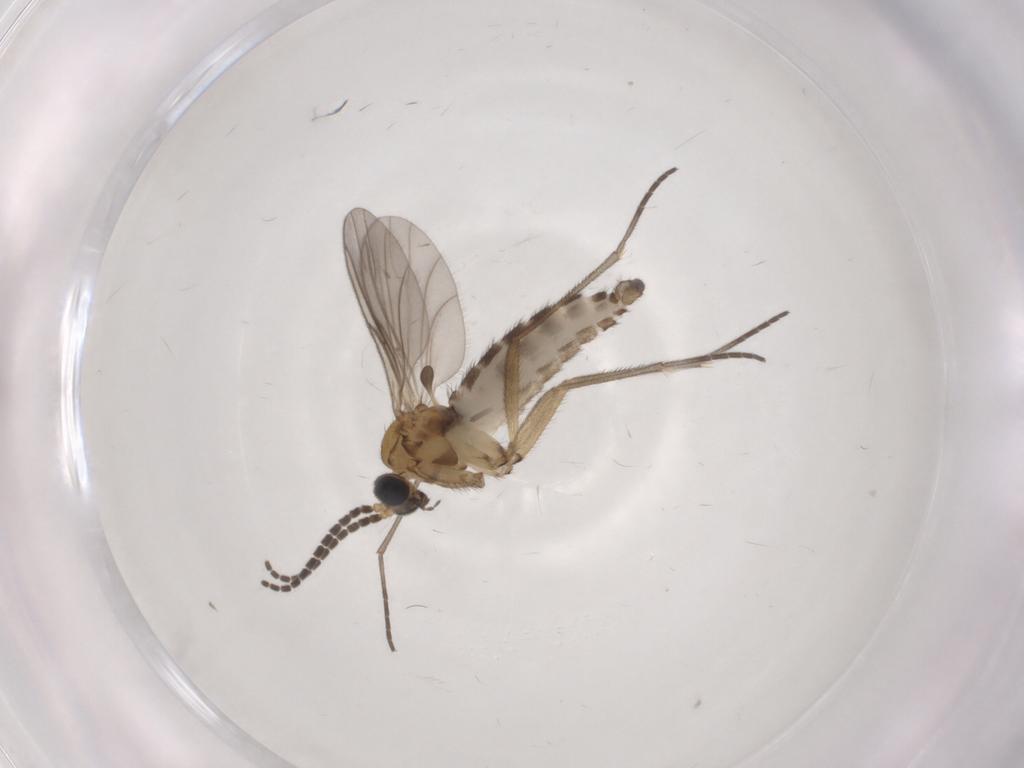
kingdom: Animalia
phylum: Arthropoda
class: Insecta
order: Diptera
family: Sciaridae
